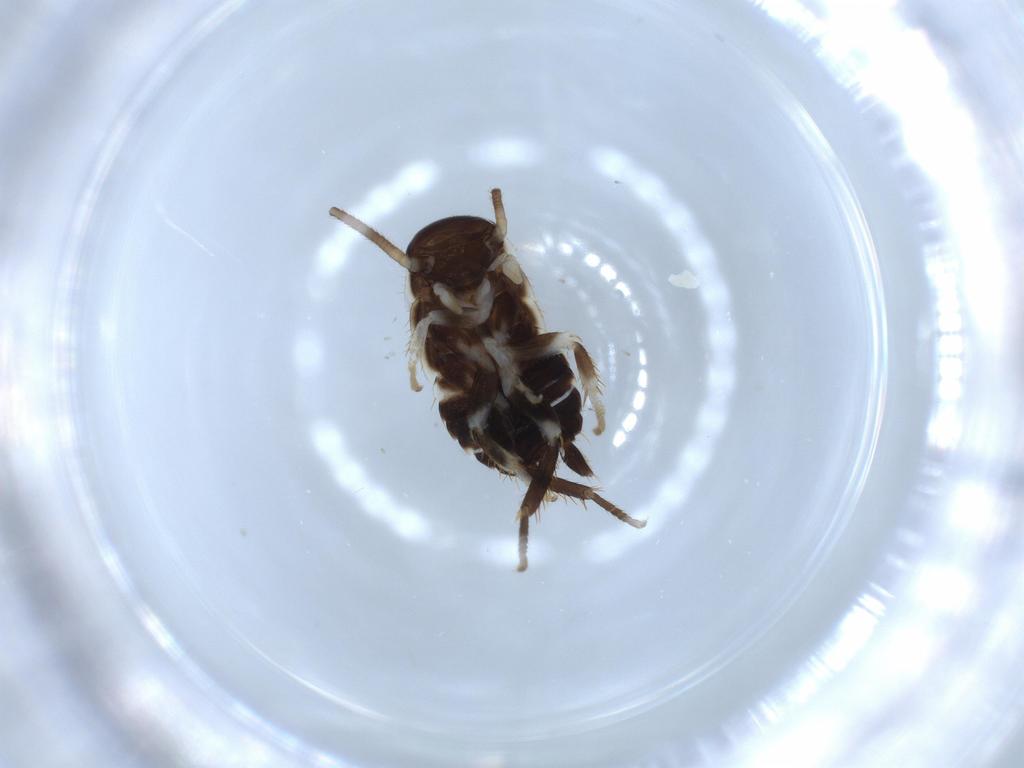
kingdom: Animalia
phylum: Arthropoda
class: Insecta
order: Blattodea
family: Ectobiidae
